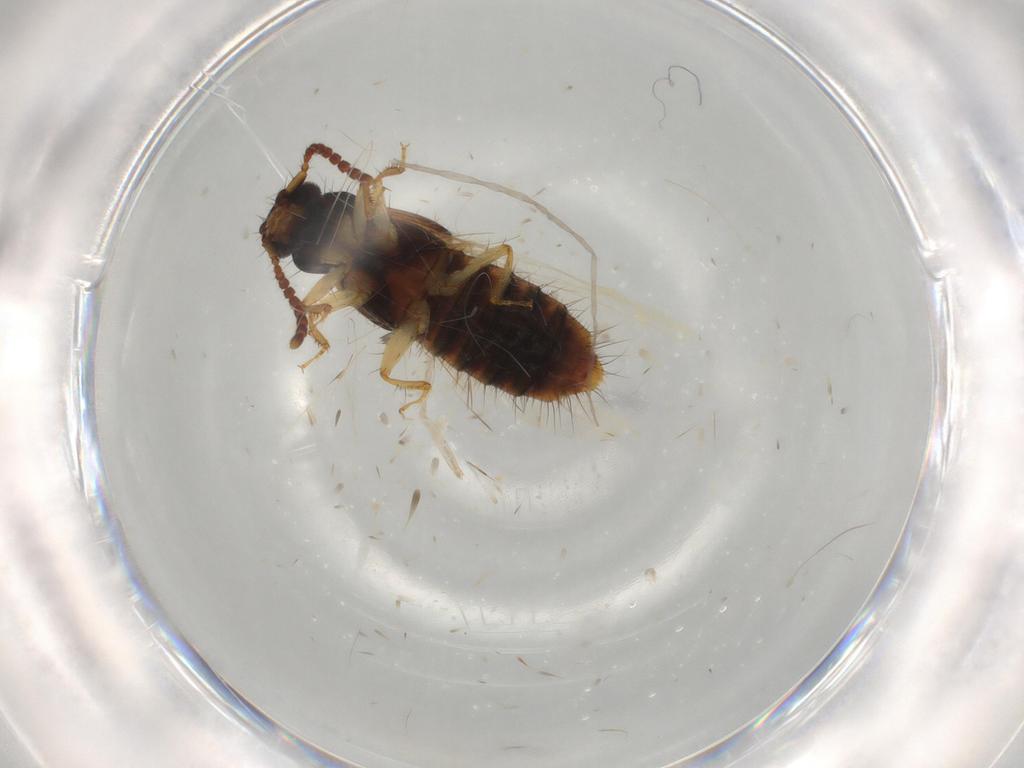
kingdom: Animalia
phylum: Arthropoda
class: Insecta
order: Coleoptera
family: Staphylinidae
